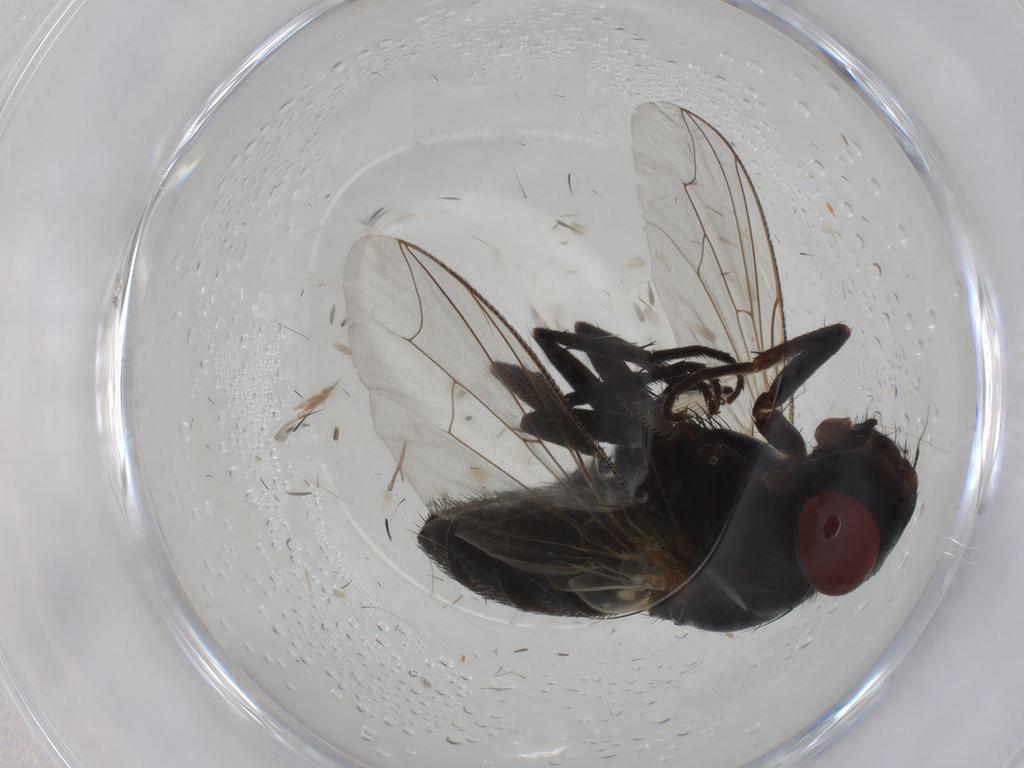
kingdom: Animalia
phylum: Arthropoda
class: Insecta
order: Diptera
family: Sarcophagidae
